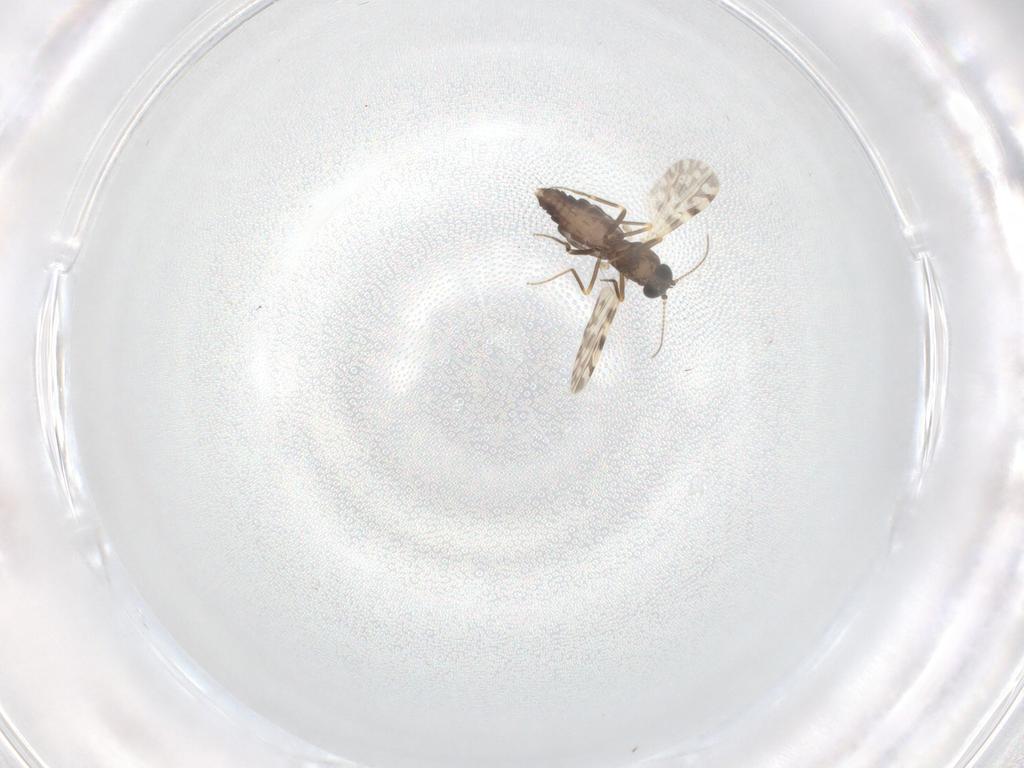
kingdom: Animalia
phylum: Arthropoda
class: Insecta
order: Diptera
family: Ceratopogonidae
